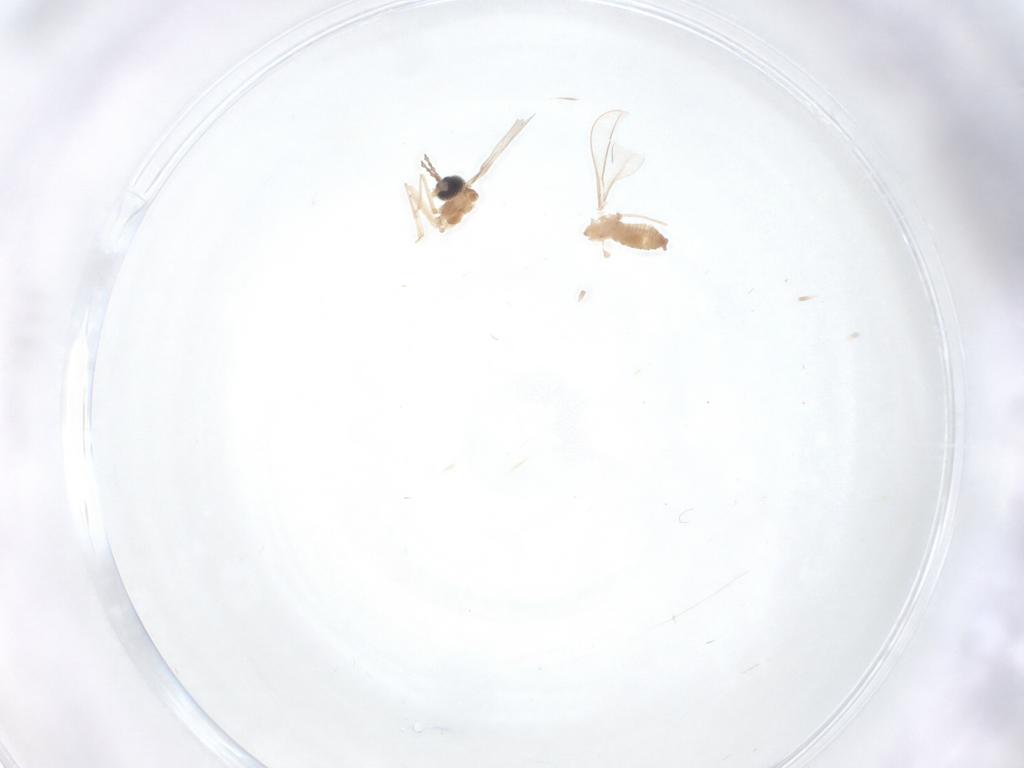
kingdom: Animalia
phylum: Arthropoda
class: Insecta
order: Diptera
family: Cecidomyiidae
